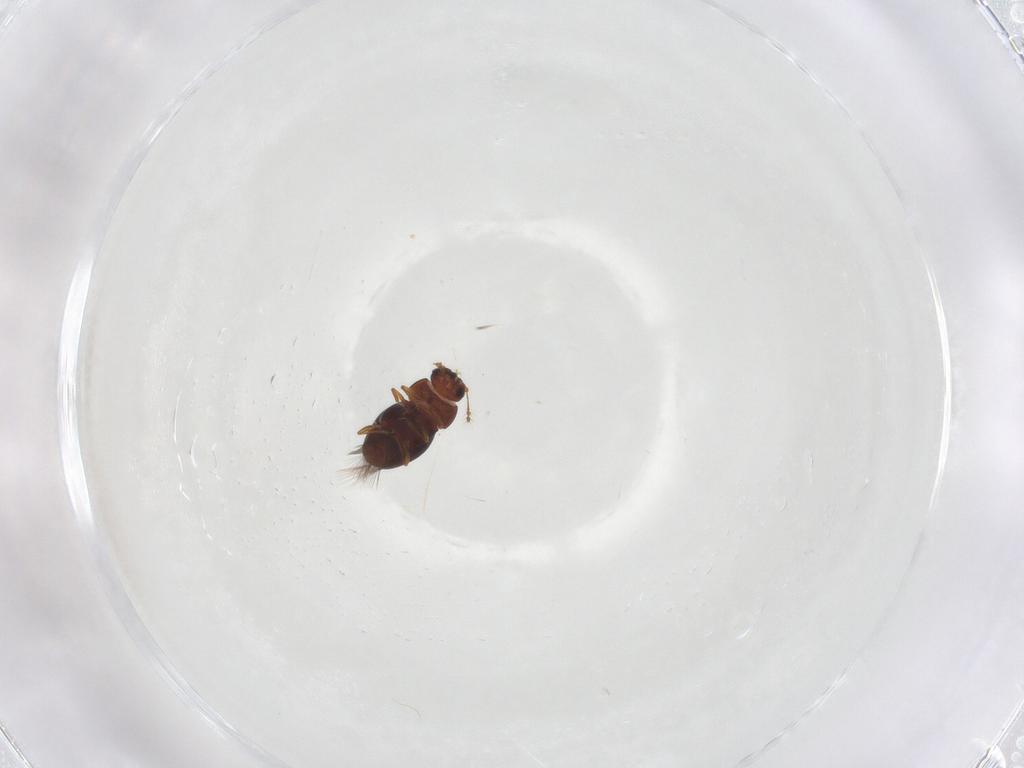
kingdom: Animalia
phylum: Arthropoda
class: Insecta
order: Coleoptera
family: Ptiliidae
